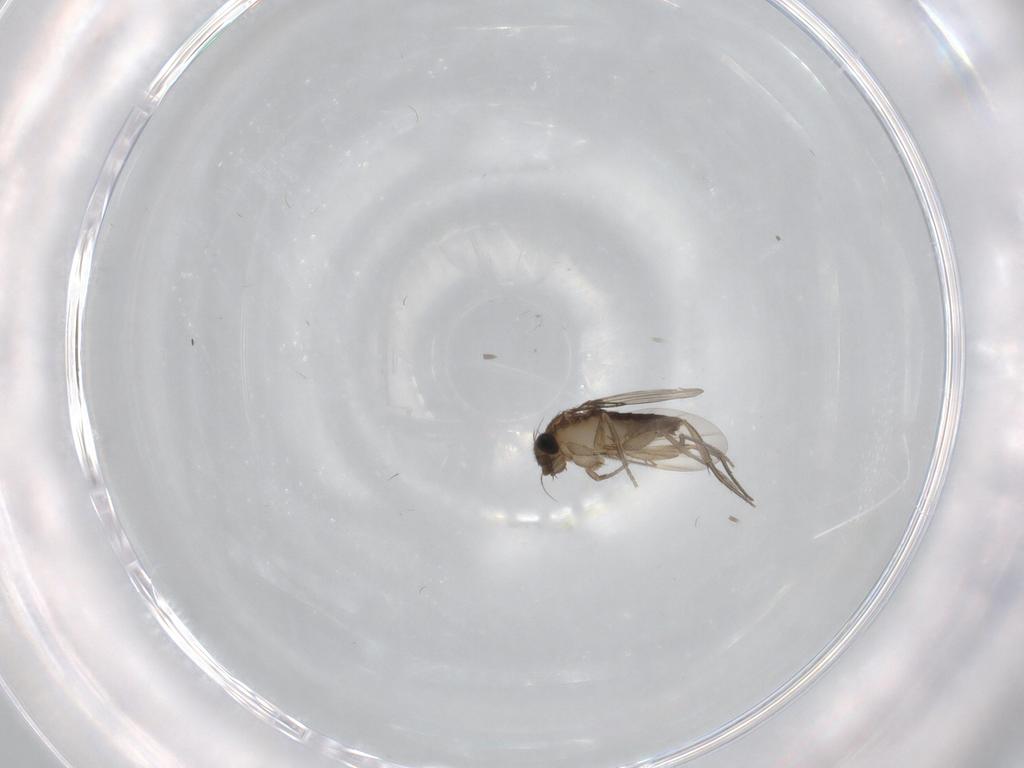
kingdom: Animalia
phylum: Arthropoda
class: Insecta
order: Diptera
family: Phoridae
